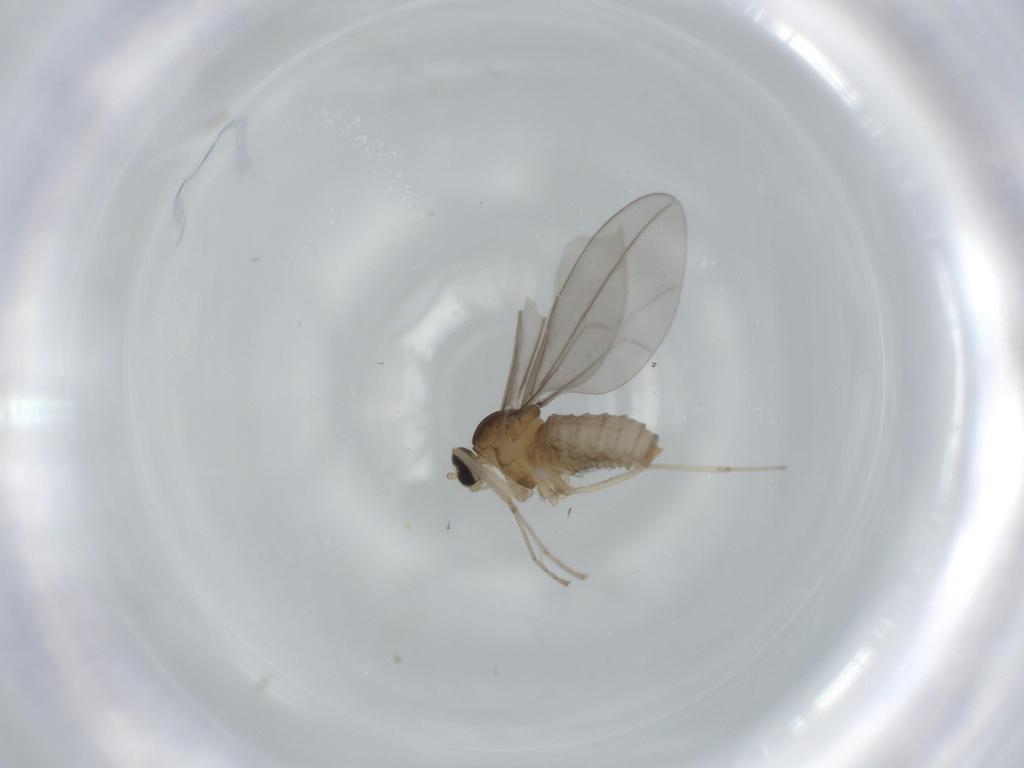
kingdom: Animalia
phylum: Arthropoda
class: Insecta
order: Diptera
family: Cecidomyiidae
